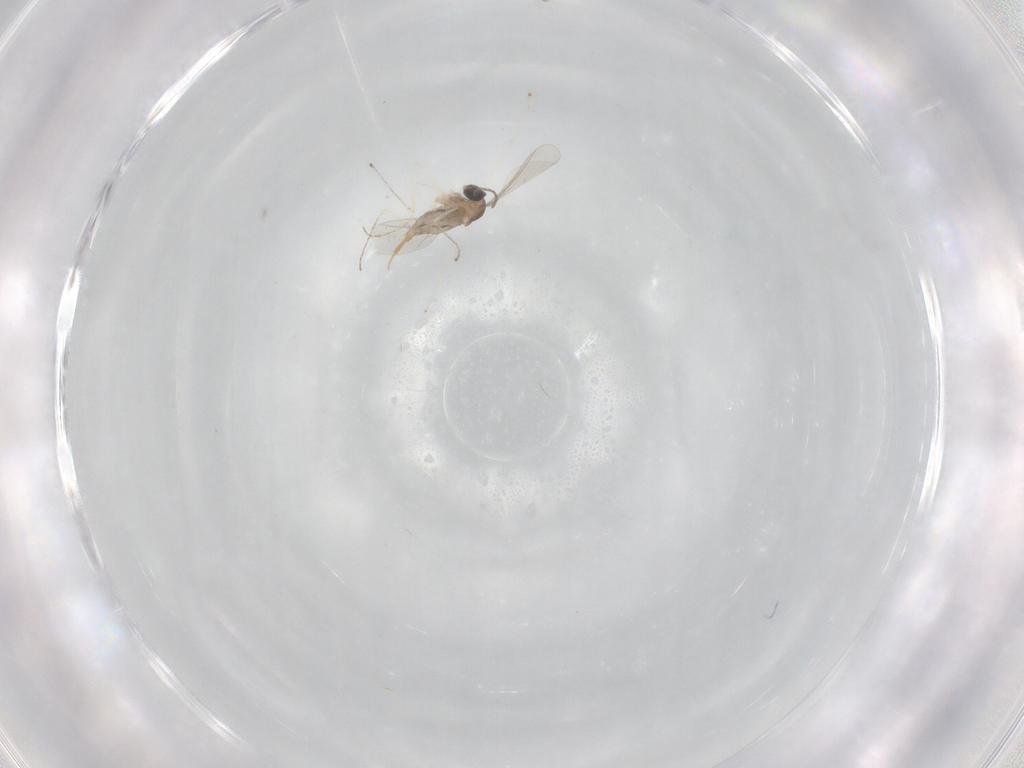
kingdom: Animalia
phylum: Arthropoda
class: Insecta
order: Diptera
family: Cecidomyiidae
